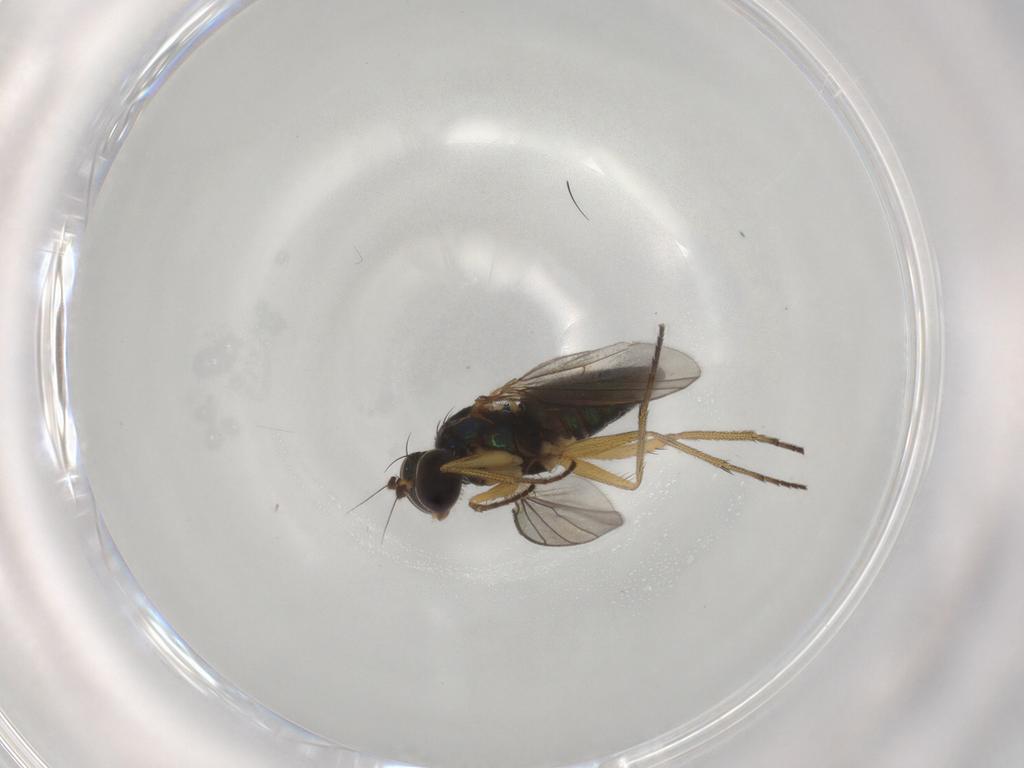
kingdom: Animalia
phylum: Arthropoda
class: Insecta
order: Diptera
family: Dolichopodidae
